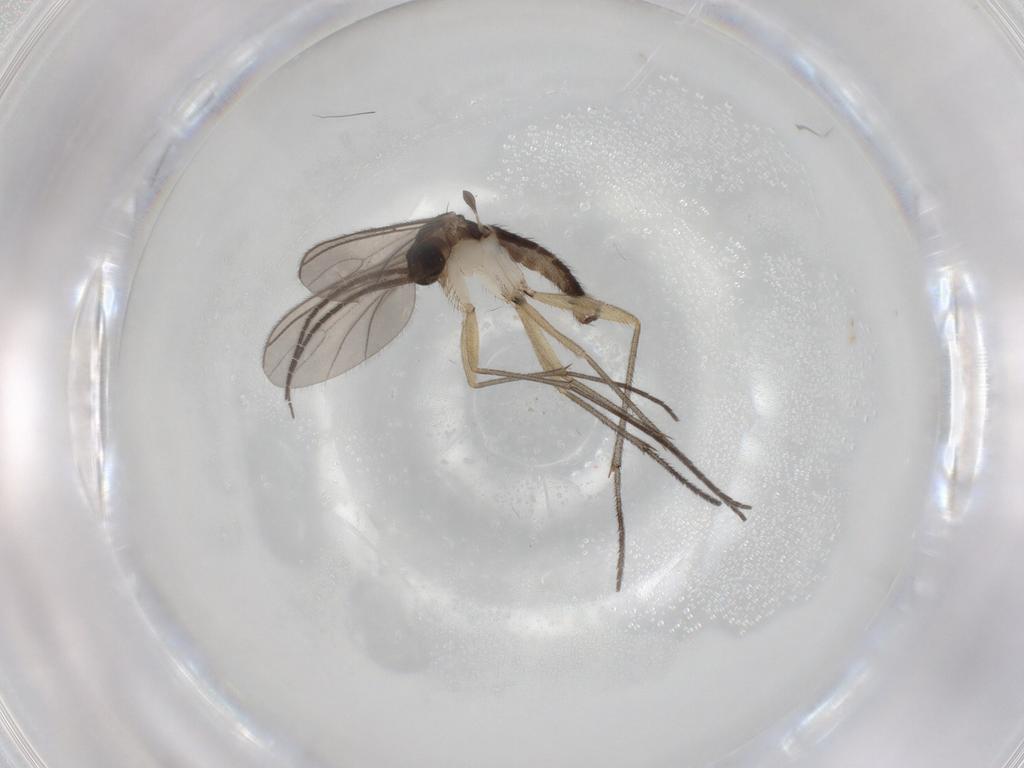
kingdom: Animalia
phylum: Arthropoda
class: Insecta
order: Diptera
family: Sciaridae
